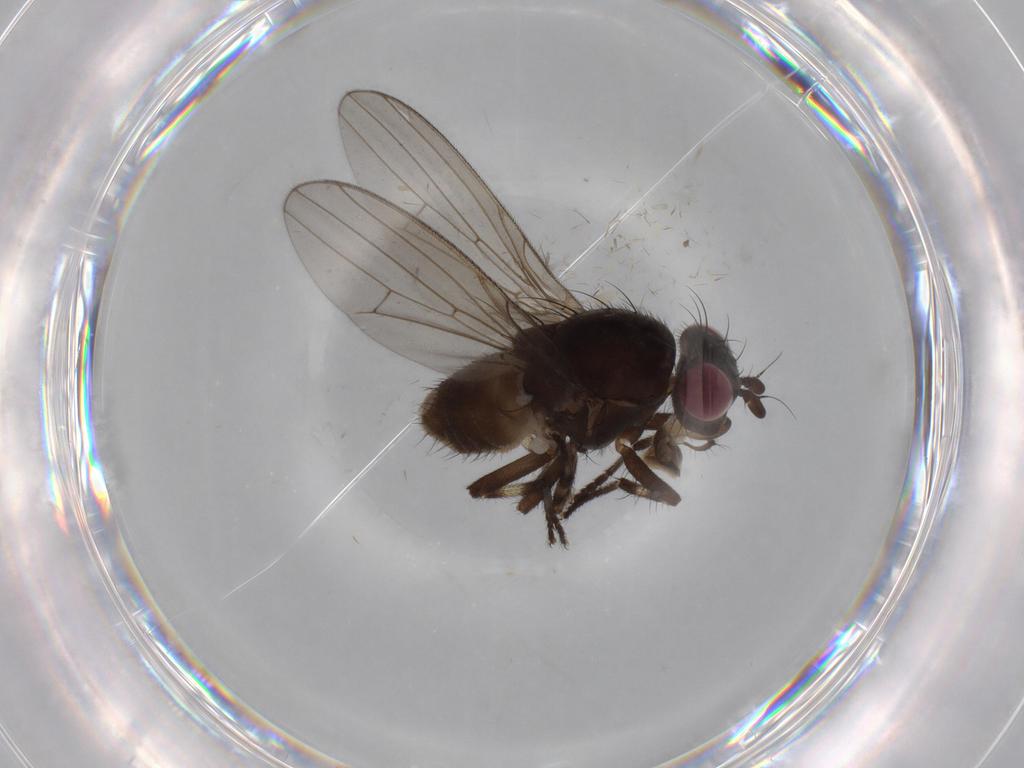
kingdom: Animalia
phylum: Arthropoda
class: Insecta
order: Diptera
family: Lauxaniidae
